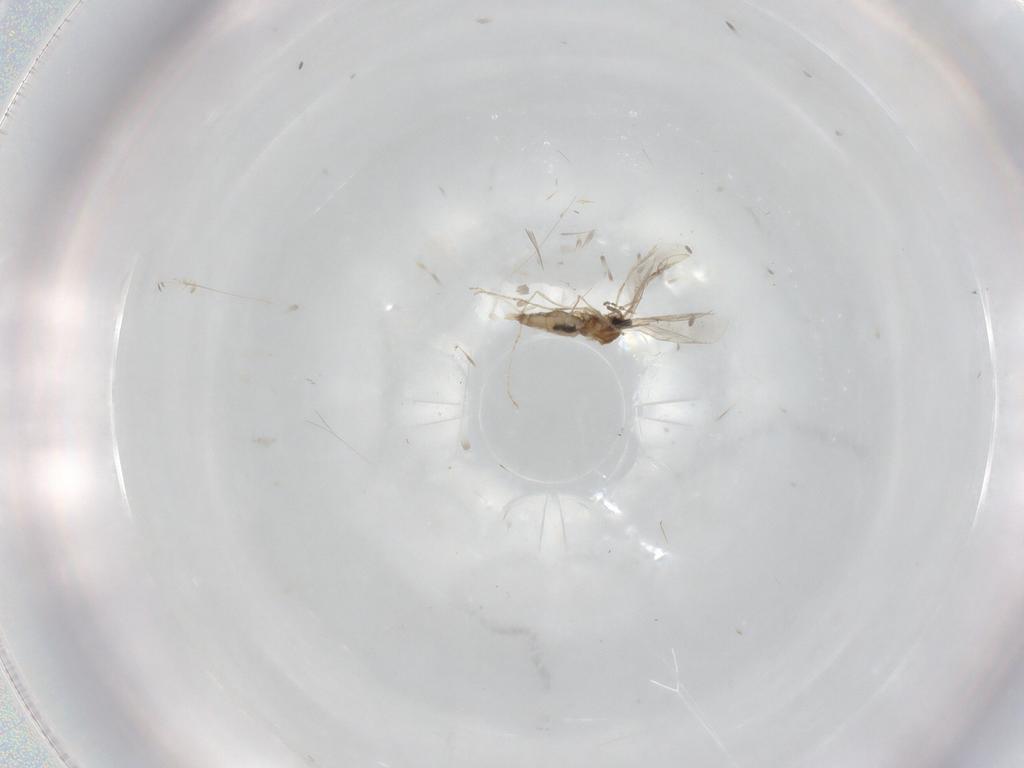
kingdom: Animalia
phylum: Arthropoda
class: Insecta
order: Diptera
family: Cecidomyiidae
